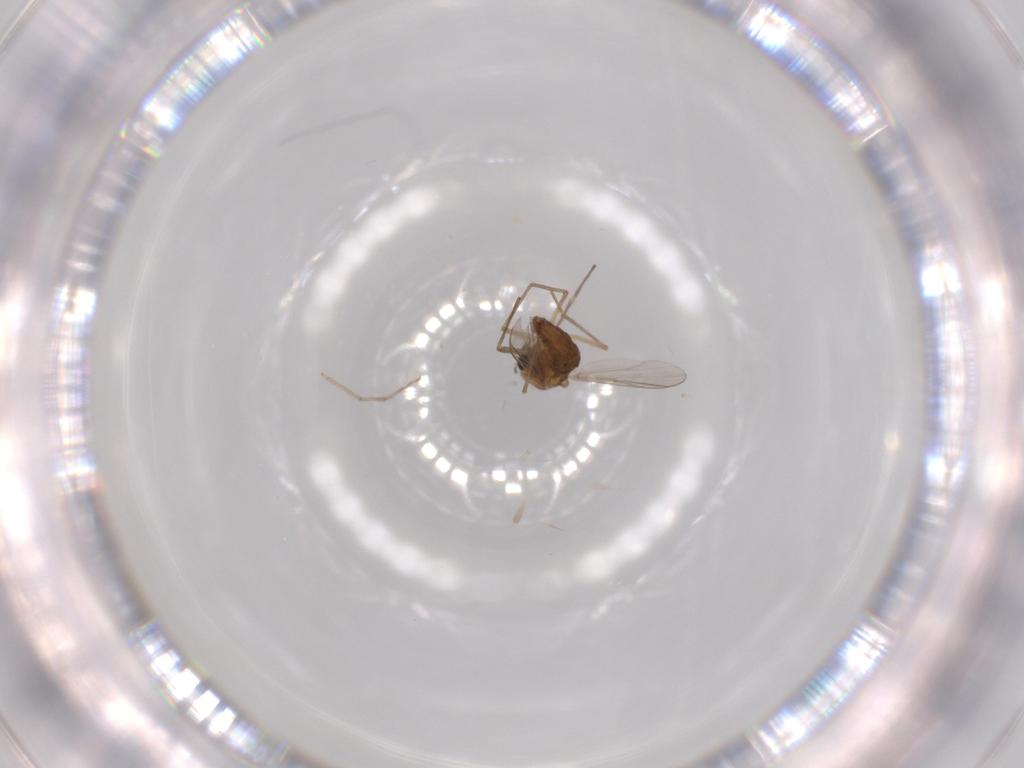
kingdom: Animalia
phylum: Arthropoda
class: Insecta
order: Diptera
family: Chironomidae
